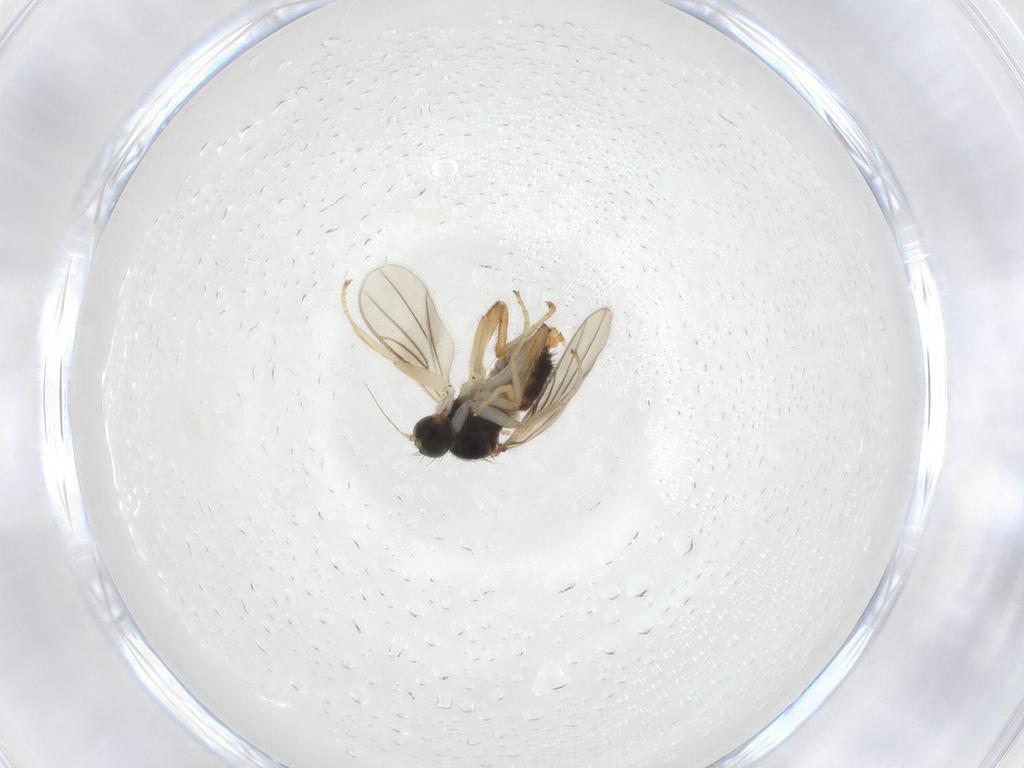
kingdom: Animalia
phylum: Arthropoda
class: Insecta
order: Diptera
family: Hybotidae
